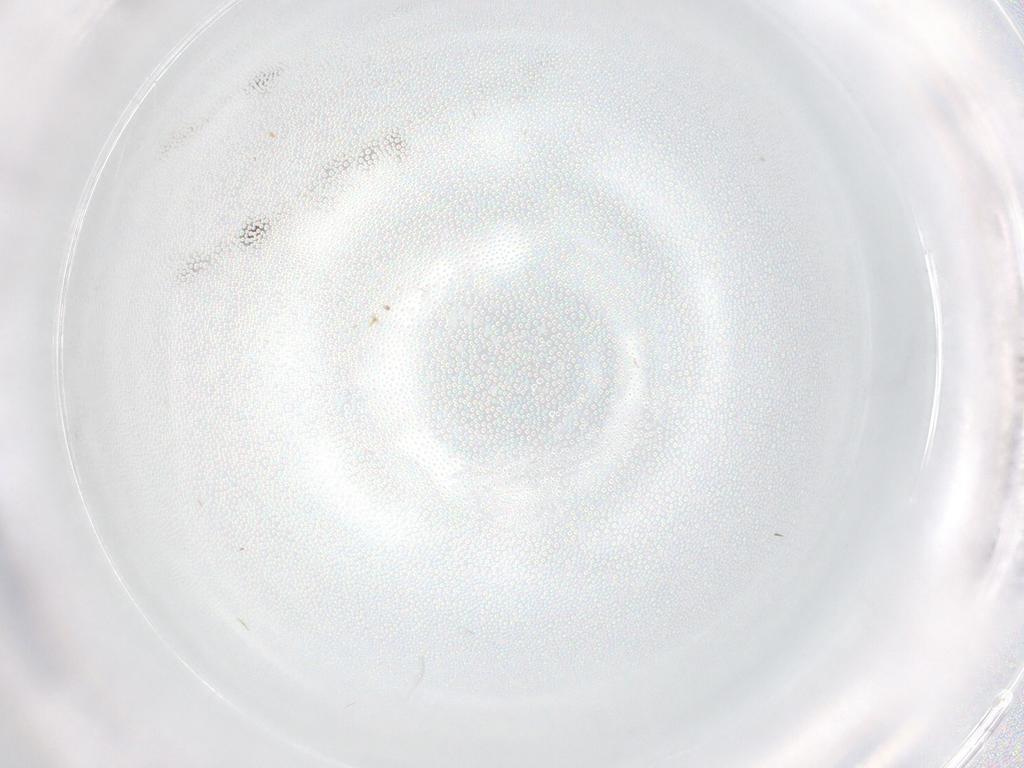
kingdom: Animalia
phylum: Arthropoda
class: Insecta
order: Diptera
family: Chironomidae
